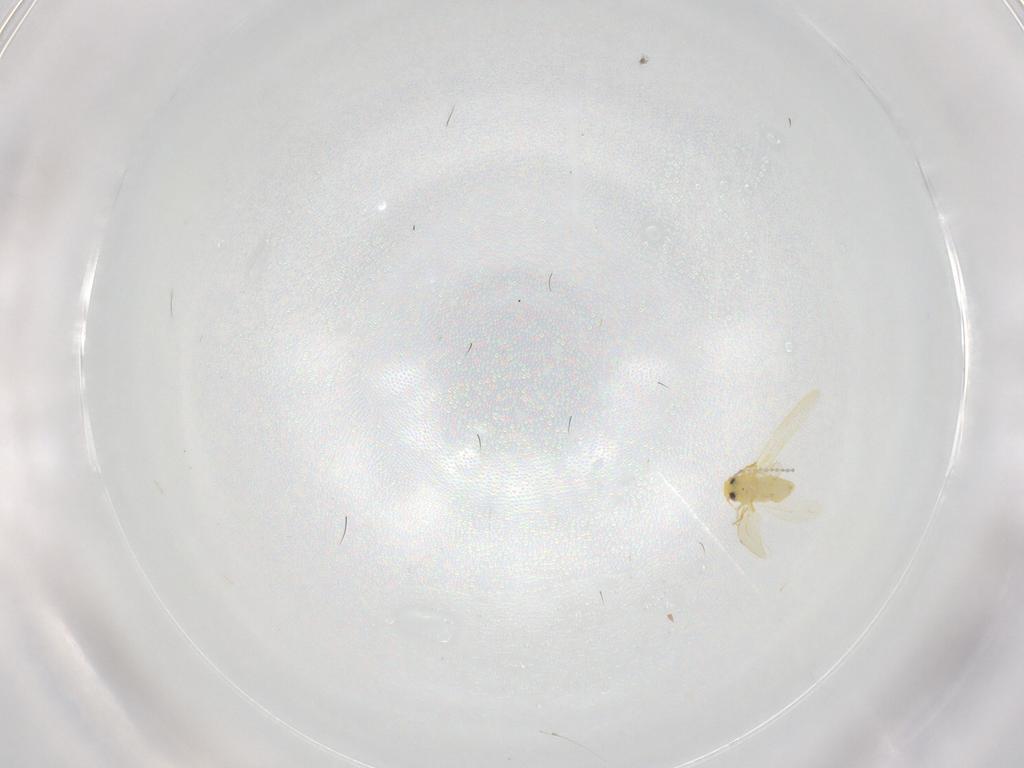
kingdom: Animalia
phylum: Arthropoda
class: Insecta
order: Hemiptera
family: Aleyrodidae
